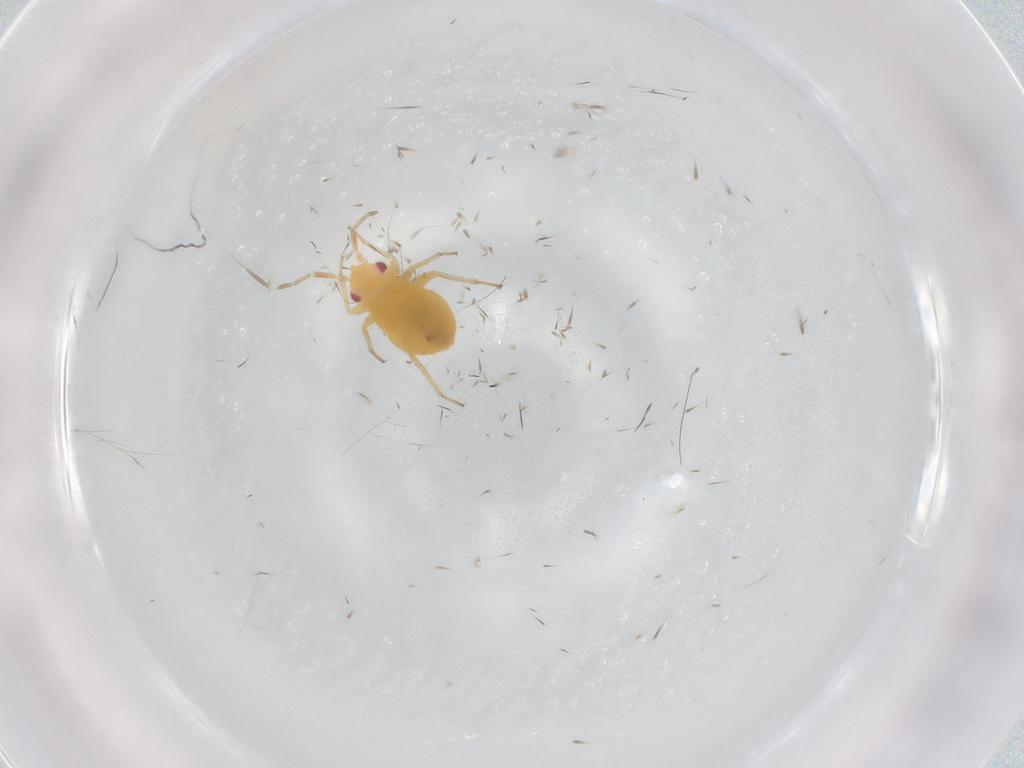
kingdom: Animalia
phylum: Arthropoda
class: Insecta
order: Hemiptera
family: Miridae
